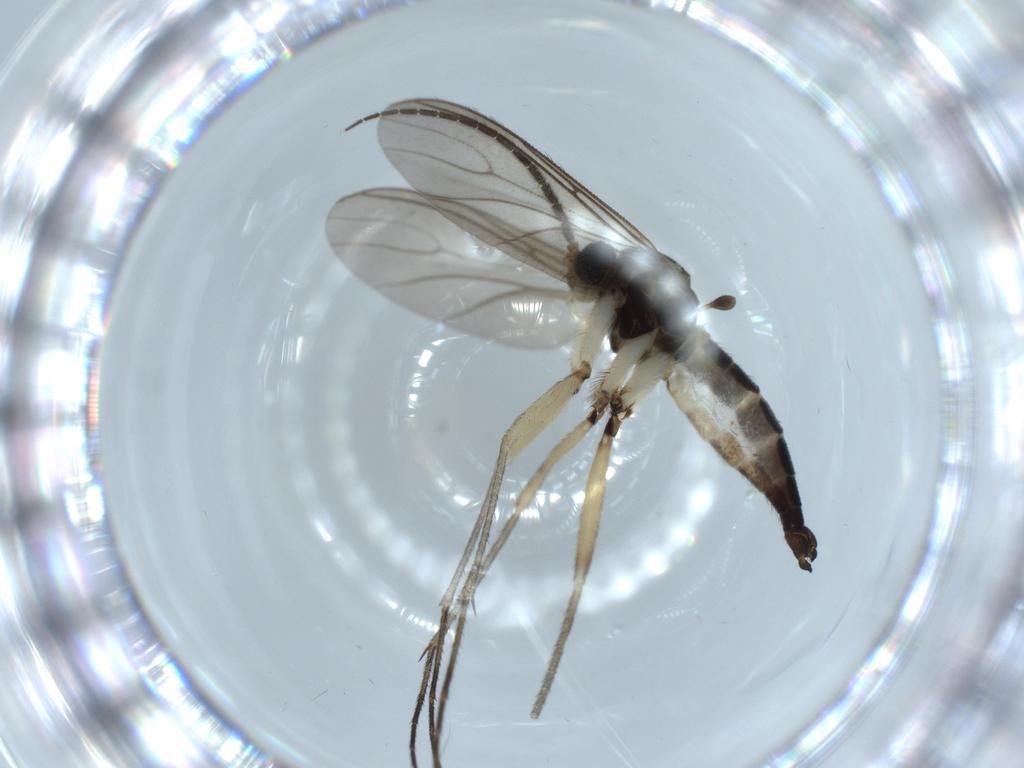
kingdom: Animalia
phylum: Arthropoda
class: Insecta
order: Diptera
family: Sciaridae
